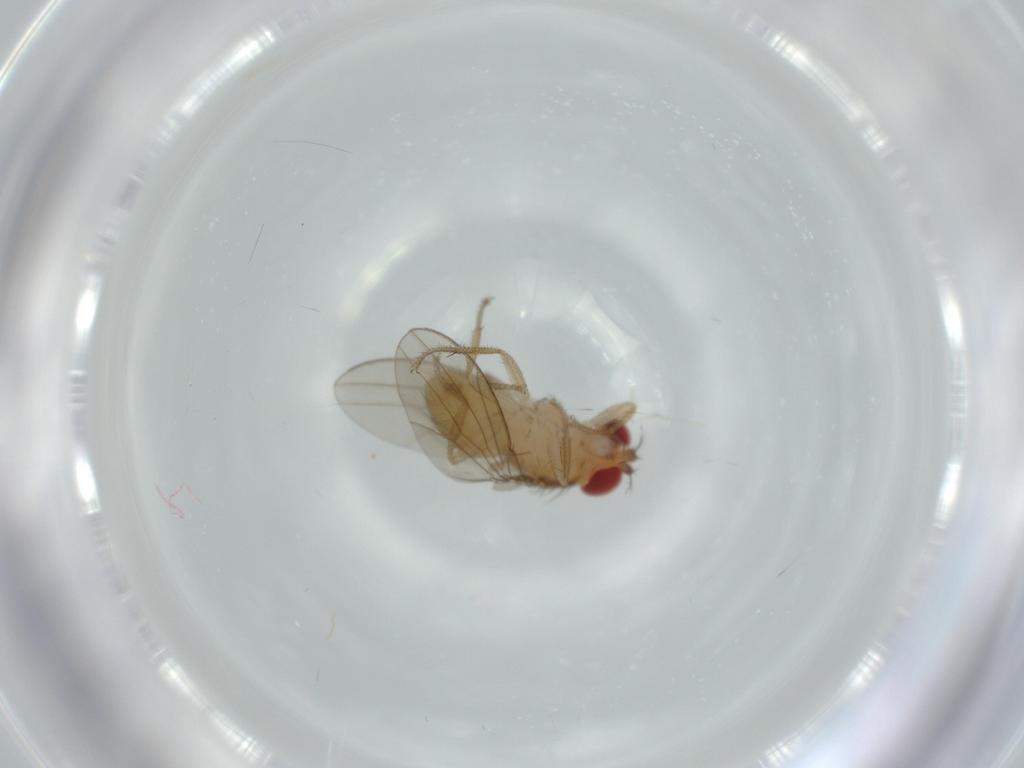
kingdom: Animalia
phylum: Arthropoda
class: Insecta
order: Diptera
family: Drosophilidae
